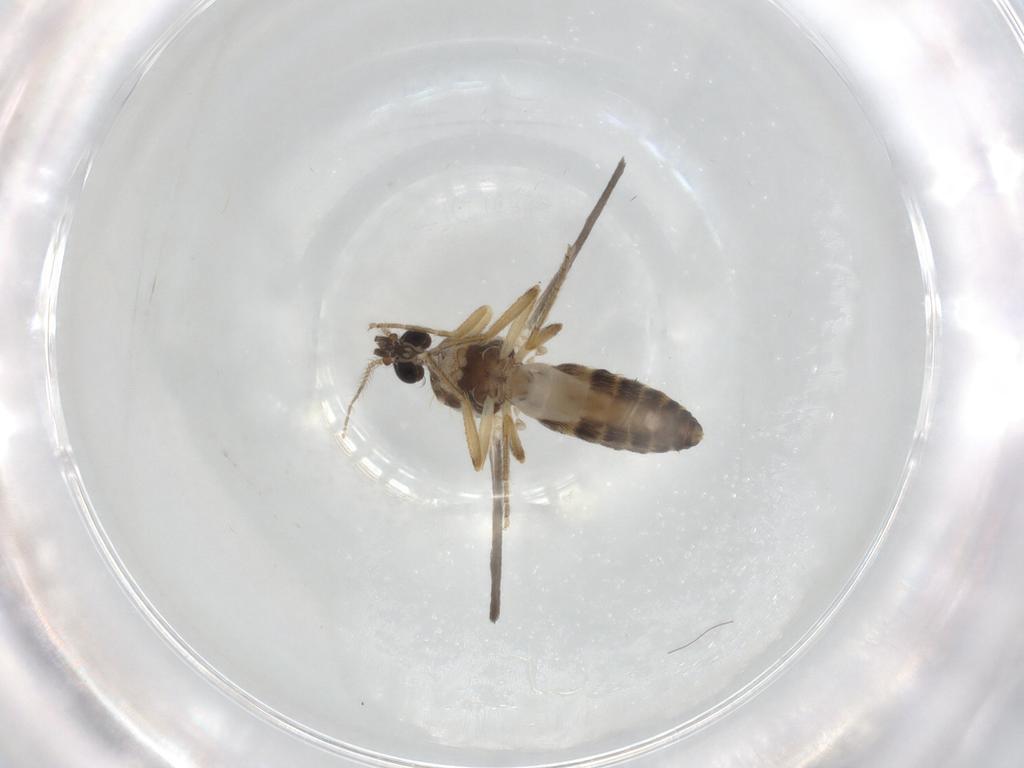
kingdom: Animalia
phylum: Arthropoda
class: Insecta
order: Diptera
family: Ceratopogonidae
